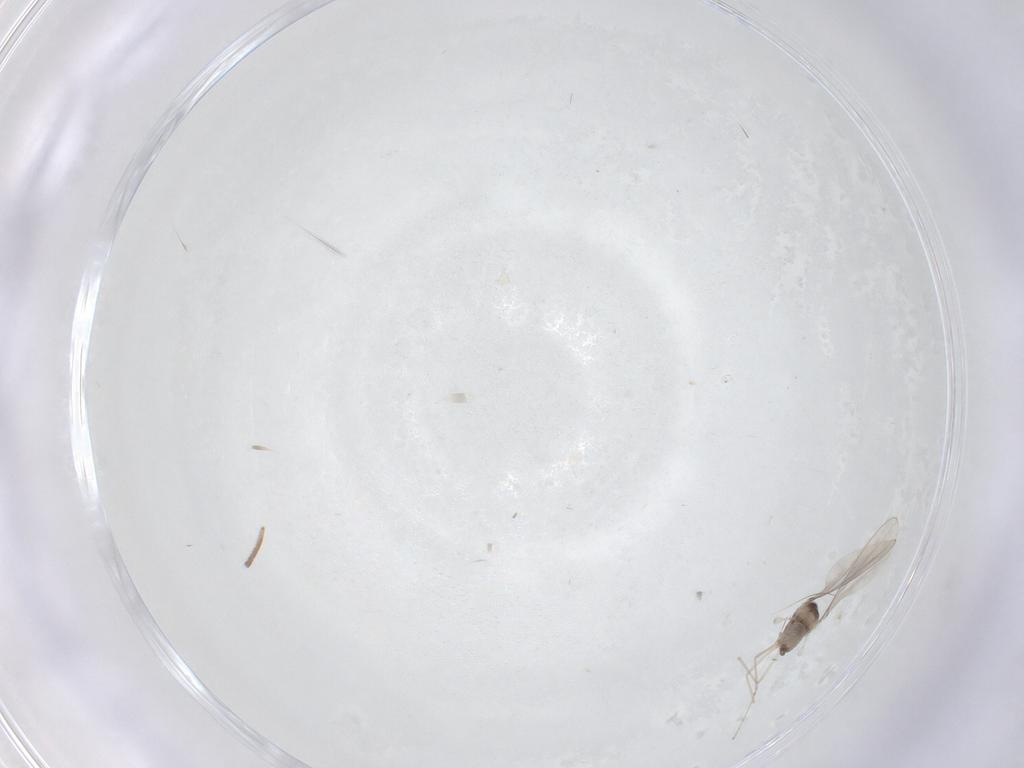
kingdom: Animalia
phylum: Arthropoda
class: Insecta
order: Diptera
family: Cecidomyiidae
